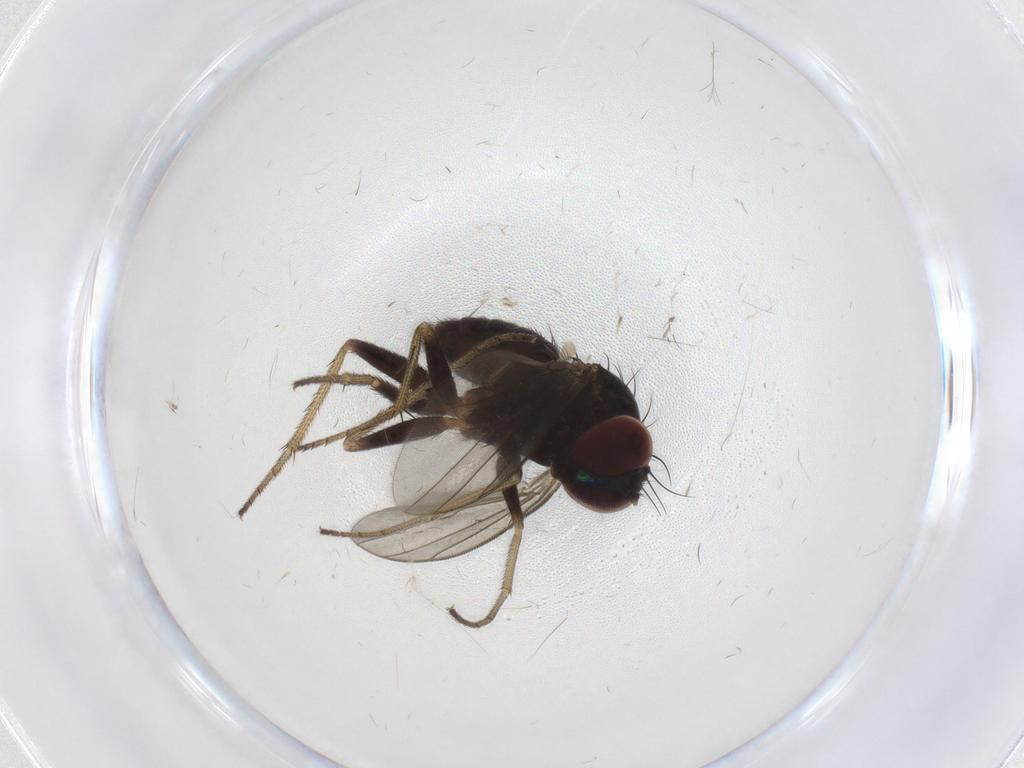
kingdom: Animalia
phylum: Arthropoda
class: Insecta
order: Diptera
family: Dolichopodidae
